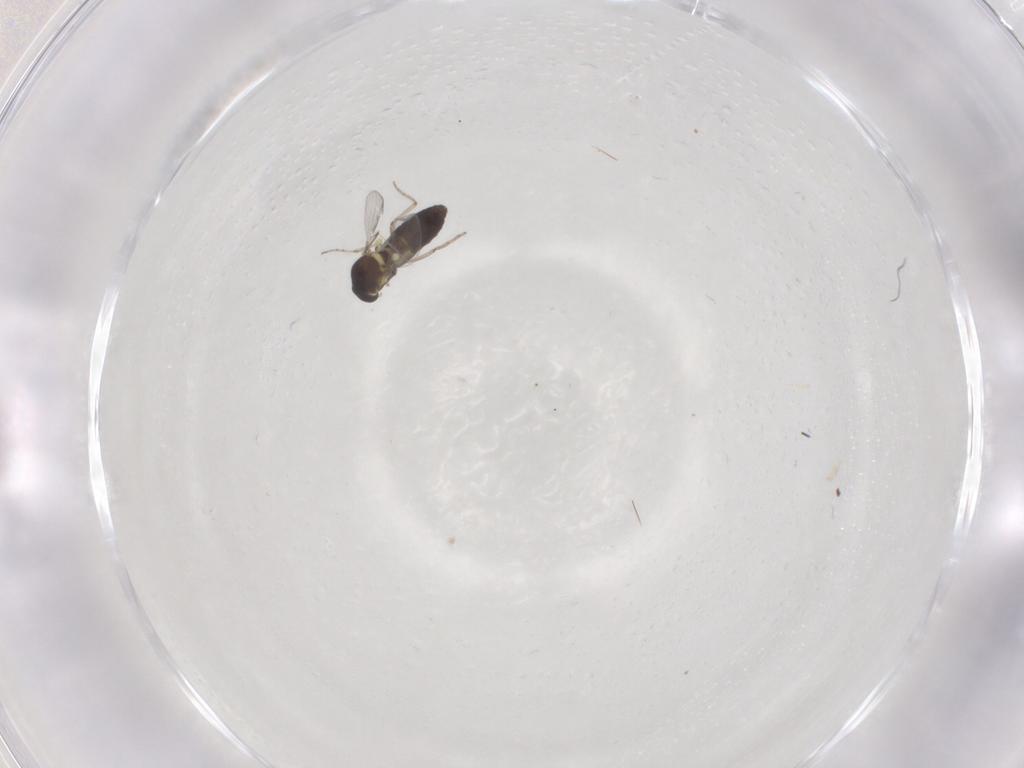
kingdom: Animalia
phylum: Arthropoda
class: Insecta
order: Diptera
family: Ceratopogonidae
